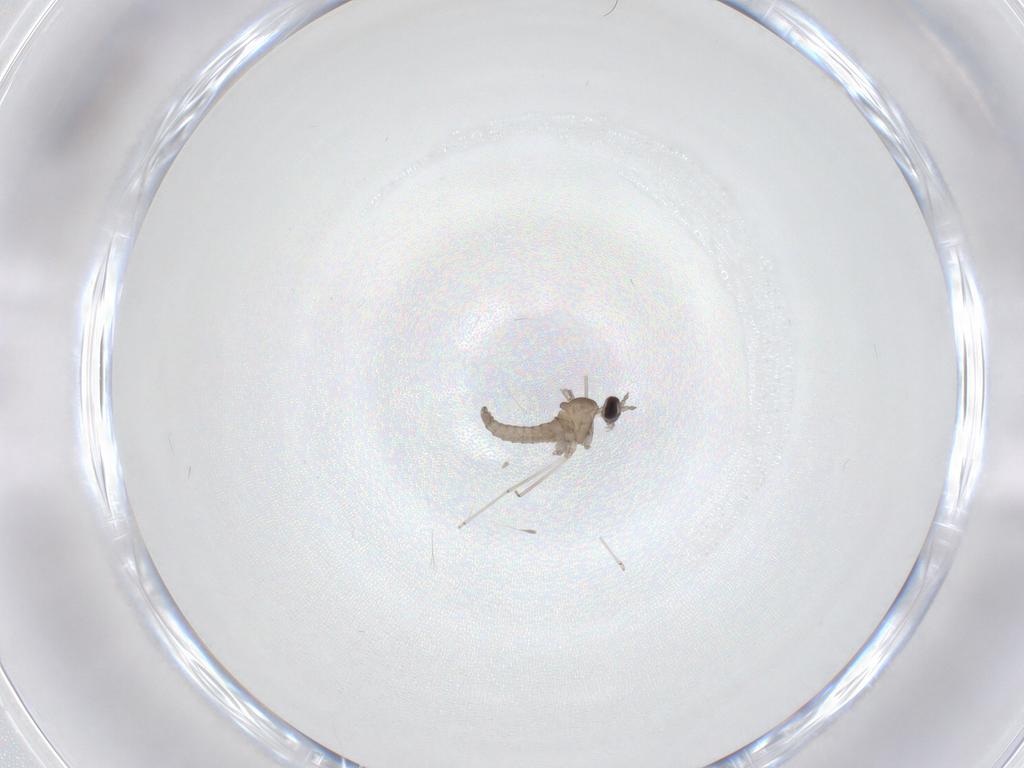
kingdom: Animalia
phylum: Arthropoda
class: Insecta
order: Diptera
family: Cecidomyiidae
